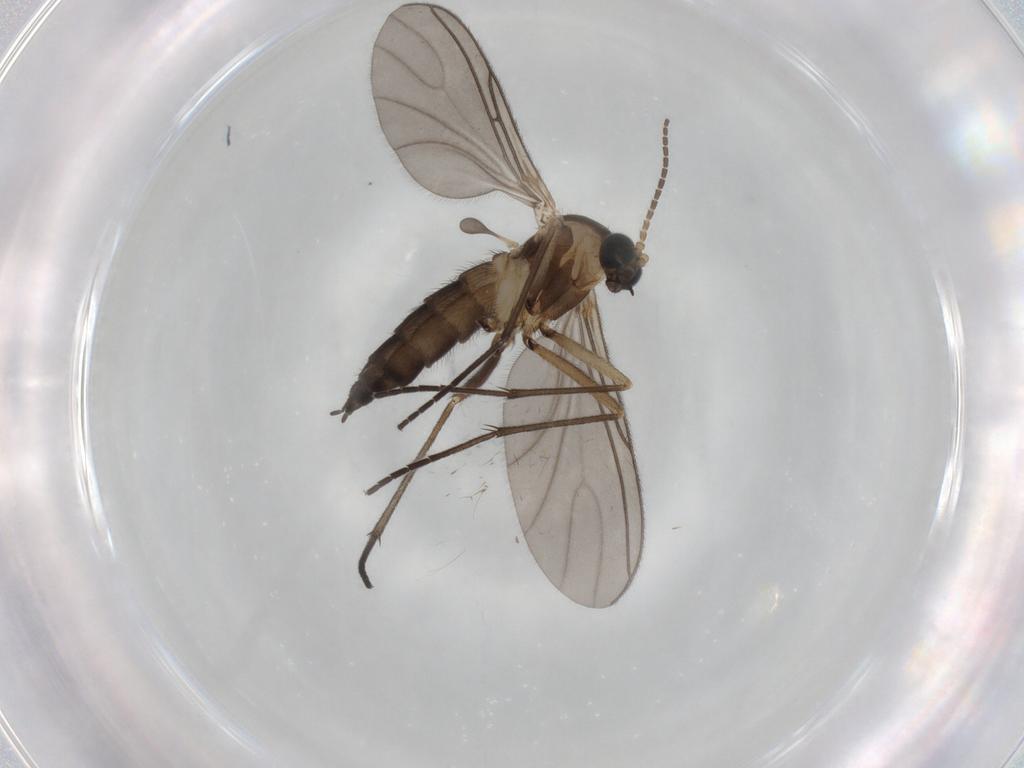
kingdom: Animalia
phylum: Arthropoda
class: Insecta
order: Diptera
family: Sciaridae
